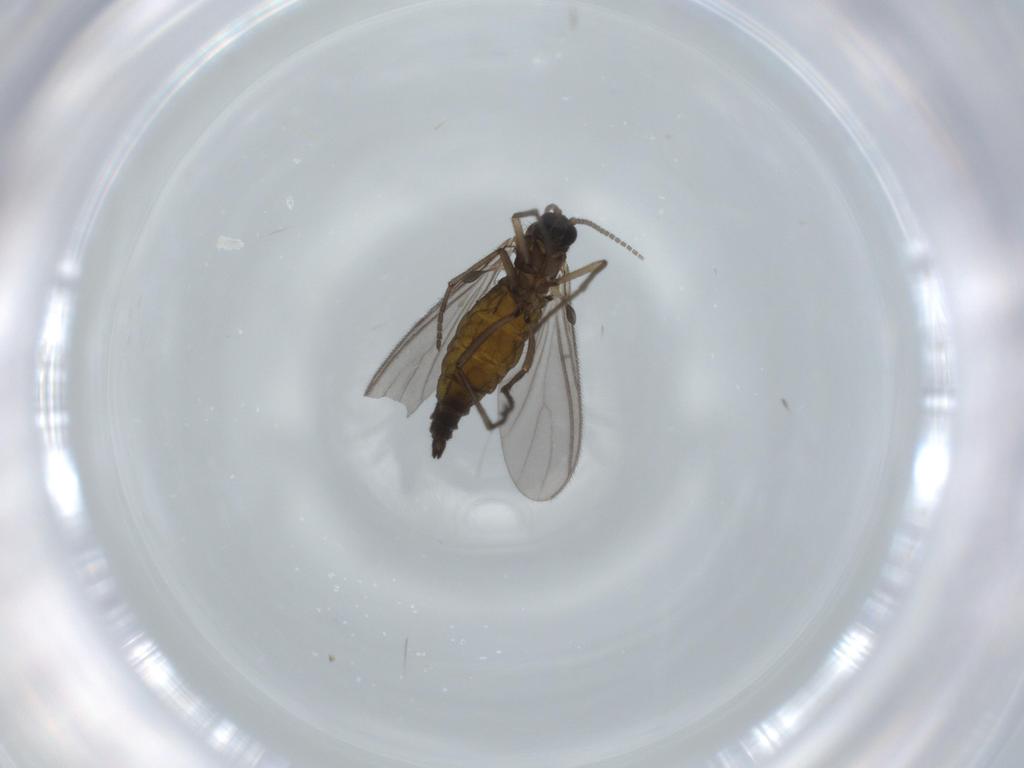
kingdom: Animalia
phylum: Arthropoda
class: Insecta
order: Diptera
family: Sciaridae
